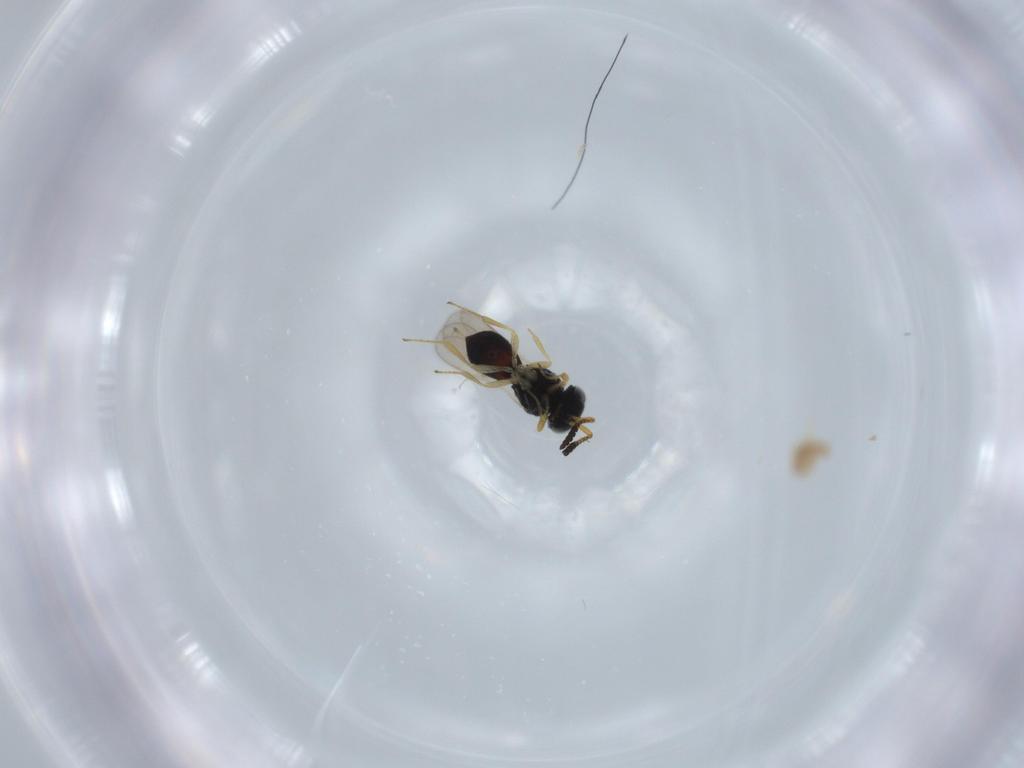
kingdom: Animalia
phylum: Arthropoda
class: Insecta
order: Hymenoptera
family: Scelionidae
